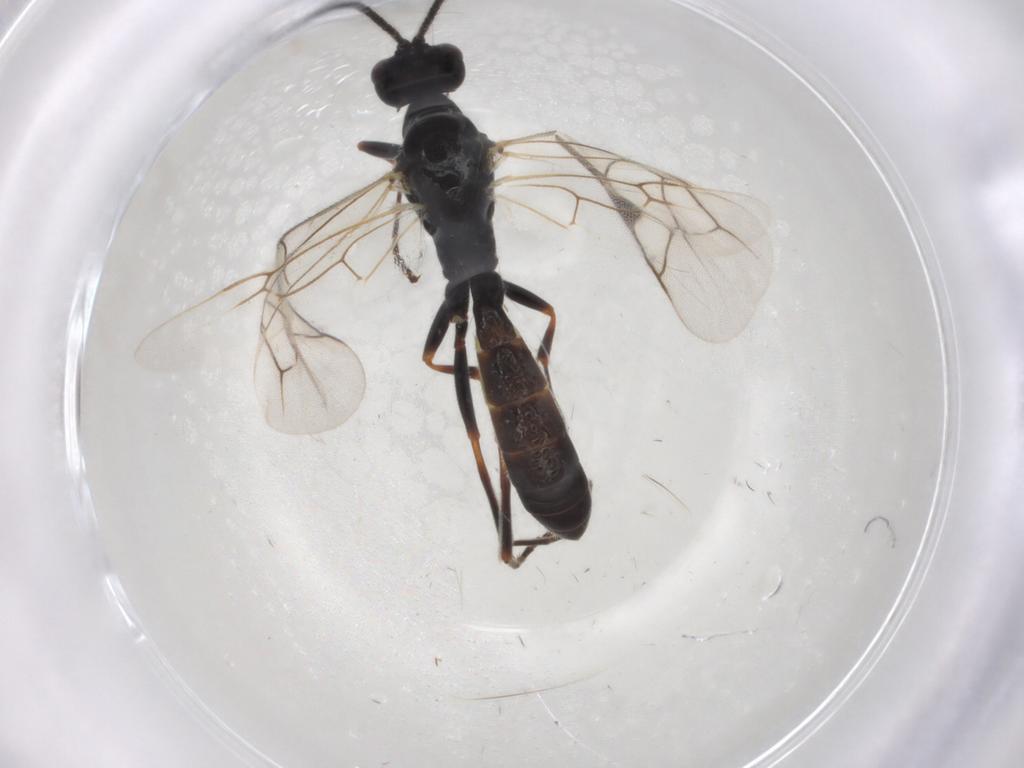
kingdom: Animalia
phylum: Arthropoda
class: Insecta
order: Hymenoptera
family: Ichneumonidae
